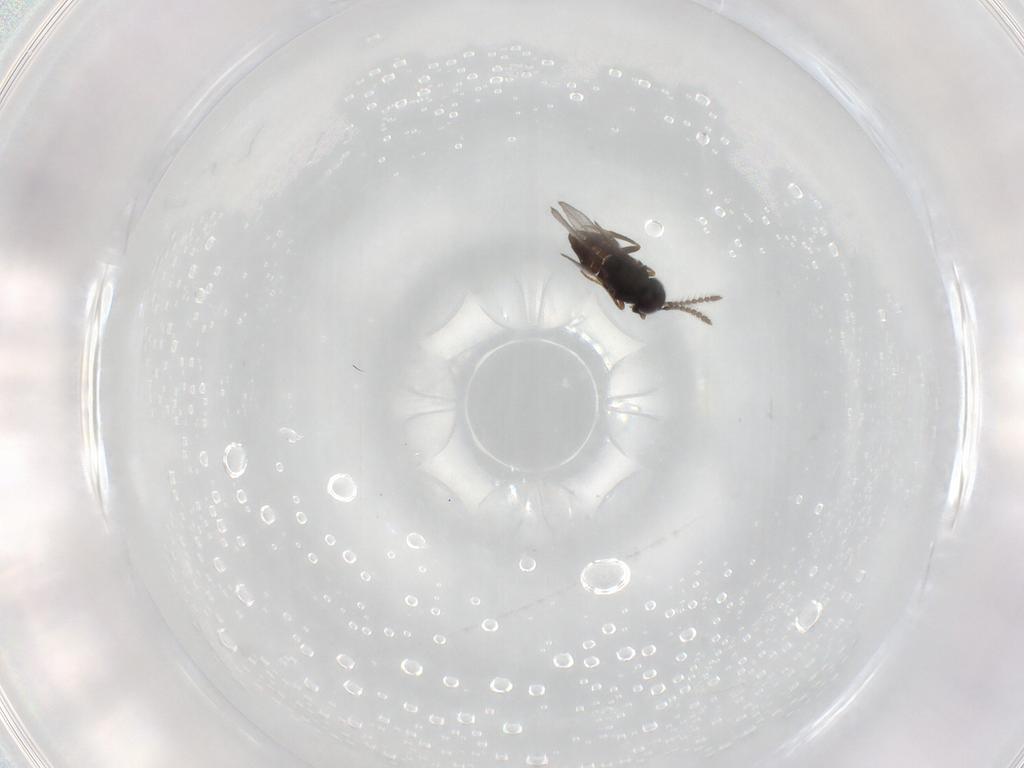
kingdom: Animalia
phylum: Arthropoda
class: Insecta
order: Hymenoptera
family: Encyrtidae
